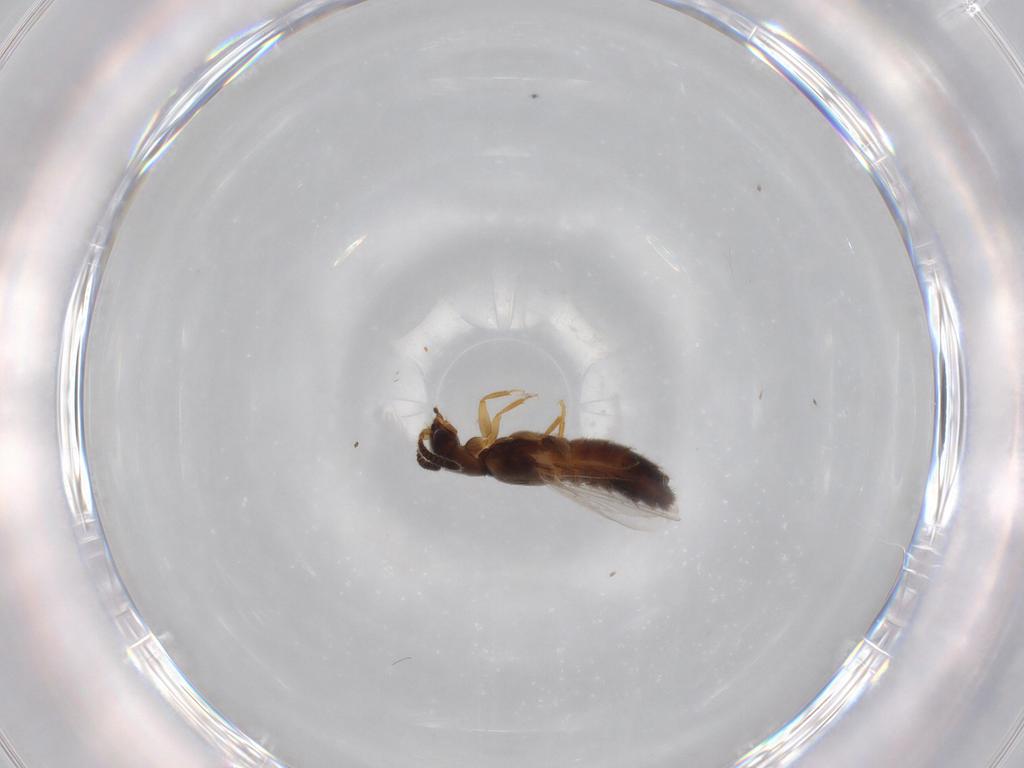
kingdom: Animalia
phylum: Arthropoda
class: Insecta
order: Coleoptera
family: Staphylinidae
